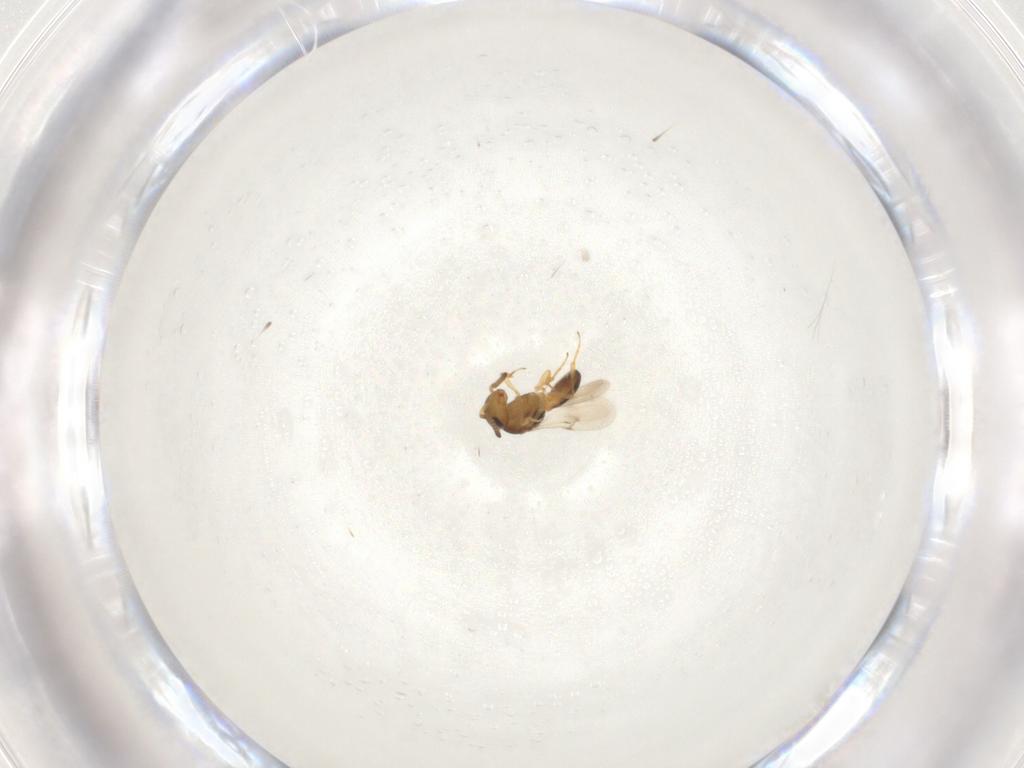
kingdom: Animalia
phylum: Arthropoda
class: Insecta
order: Hymenoptera
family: Scelionidae
